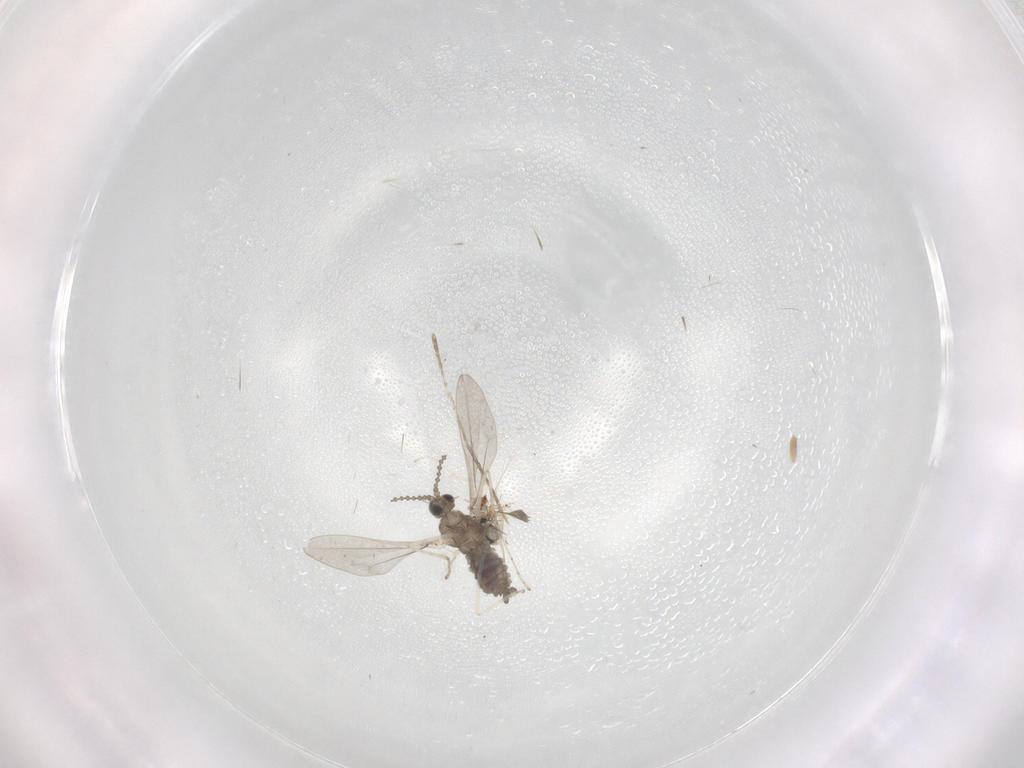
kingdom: Animalia
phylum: Arthropoda
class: Insecta
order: Diptera
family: Cecidomyiidae
